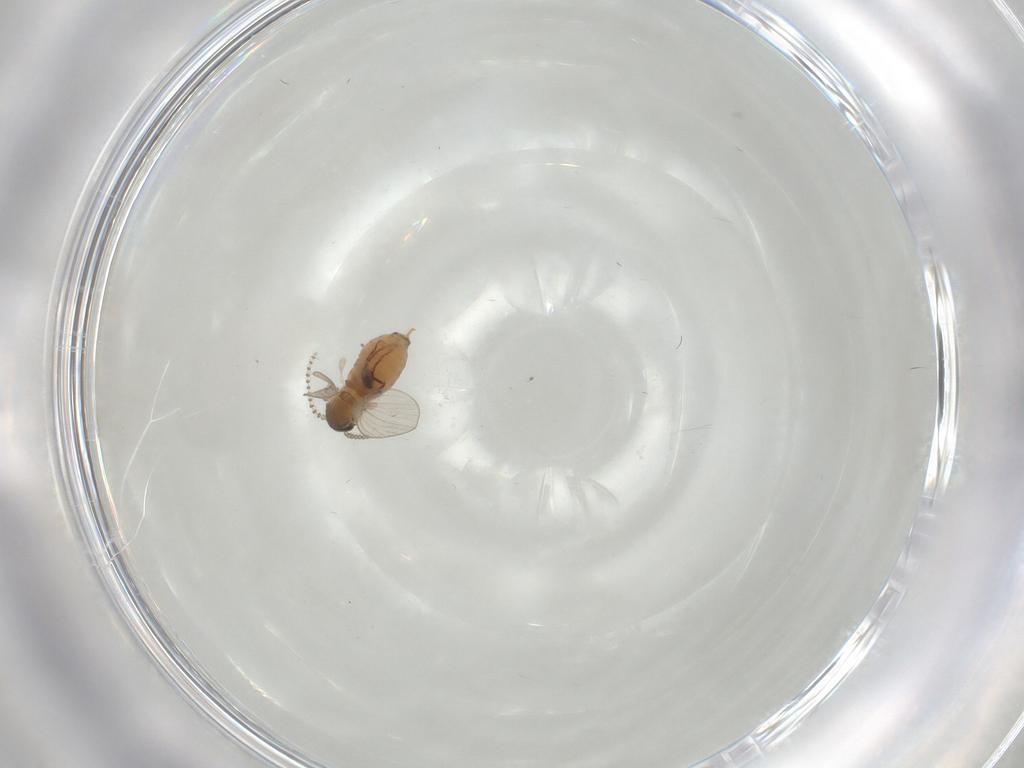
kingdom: Animalia
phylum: Arthropoda
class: Insecta
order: Diptera
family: Psychodidae
